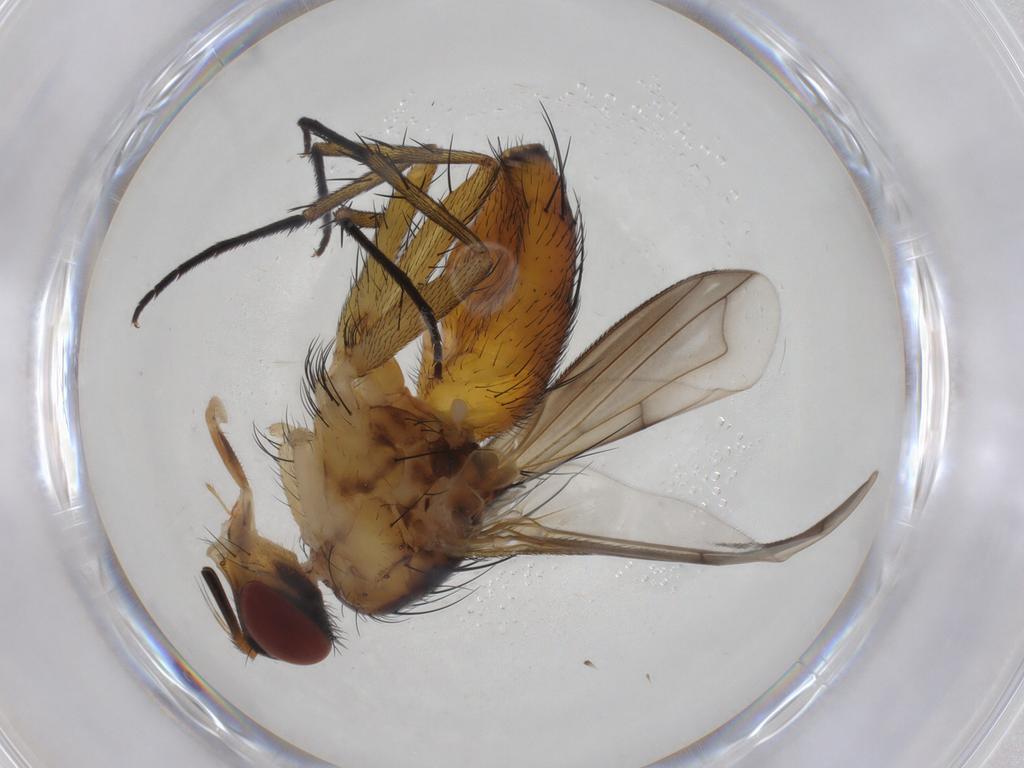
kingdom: Animalia
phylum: Arthropoda
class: Insecta
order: Diptera
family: Tachinidae
